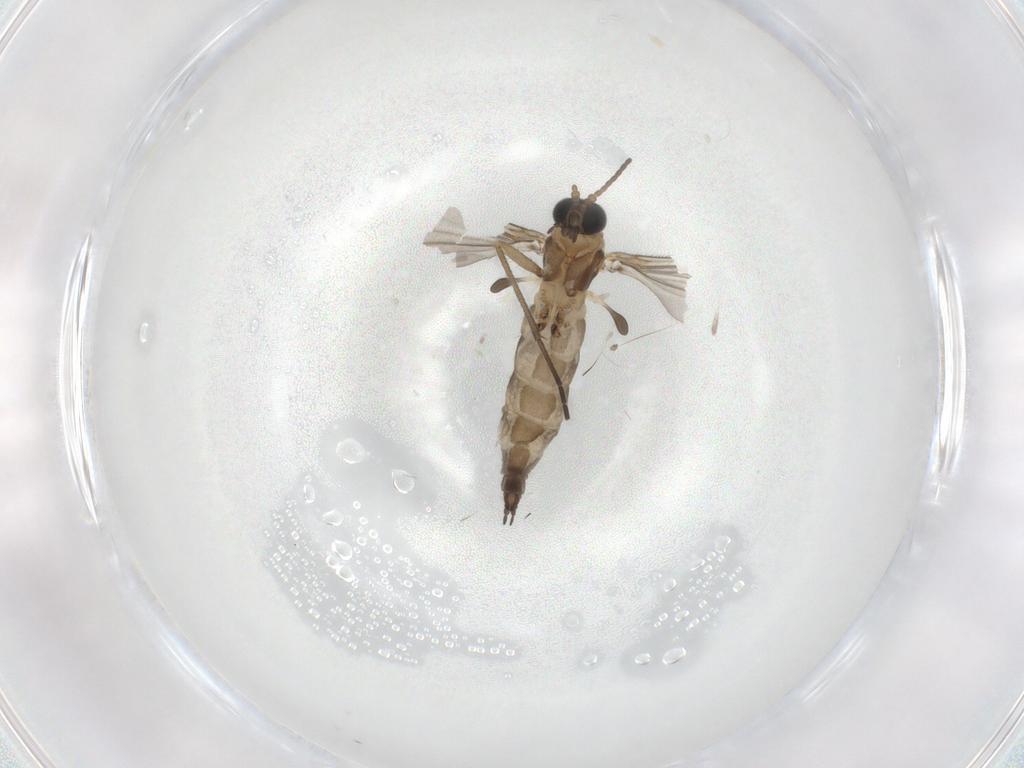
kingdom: Animalia
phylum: Arthropoda
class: Insecta
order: Diptera
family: Sciaridae
